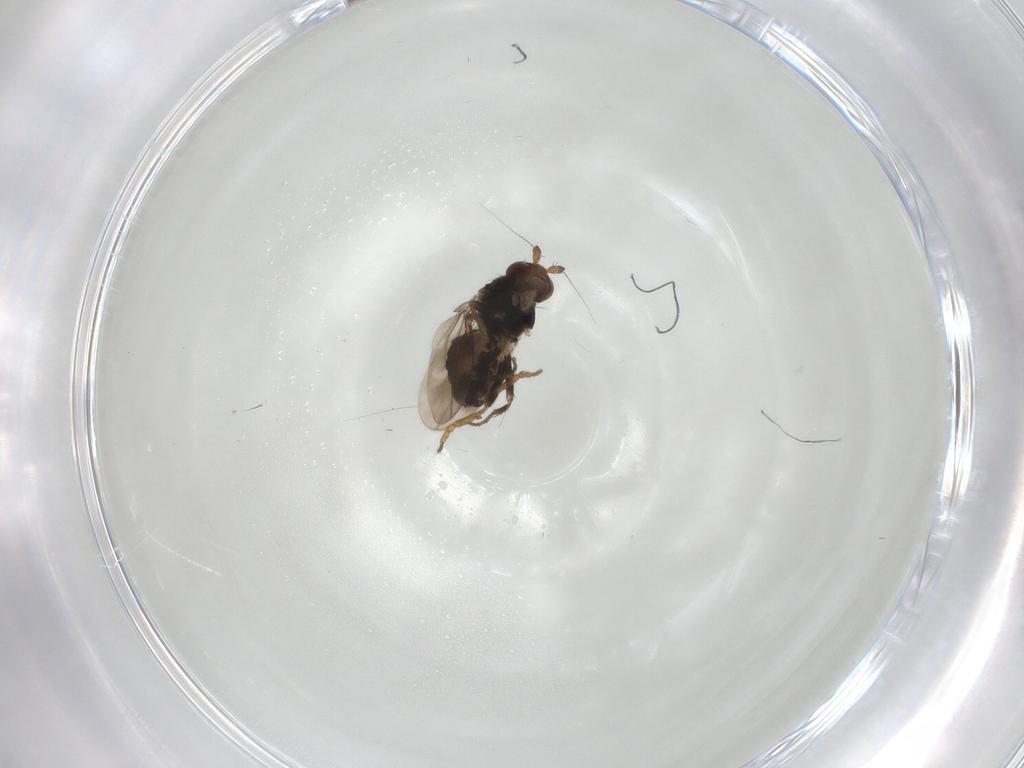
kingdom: Animalia
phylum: Arthropoda
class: Insecta
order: Diptera
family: Sphaeroceridae
